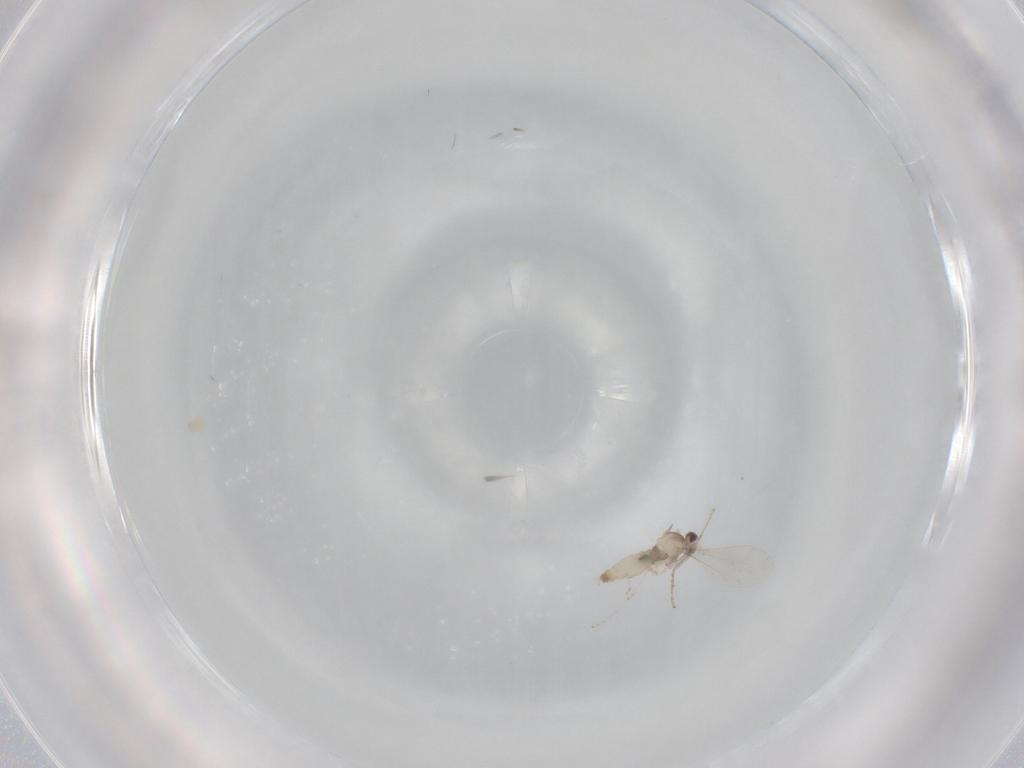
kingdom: Animalia
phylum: Arthropoda
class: Insecta
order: Diptera
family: Cecidomyiidae
